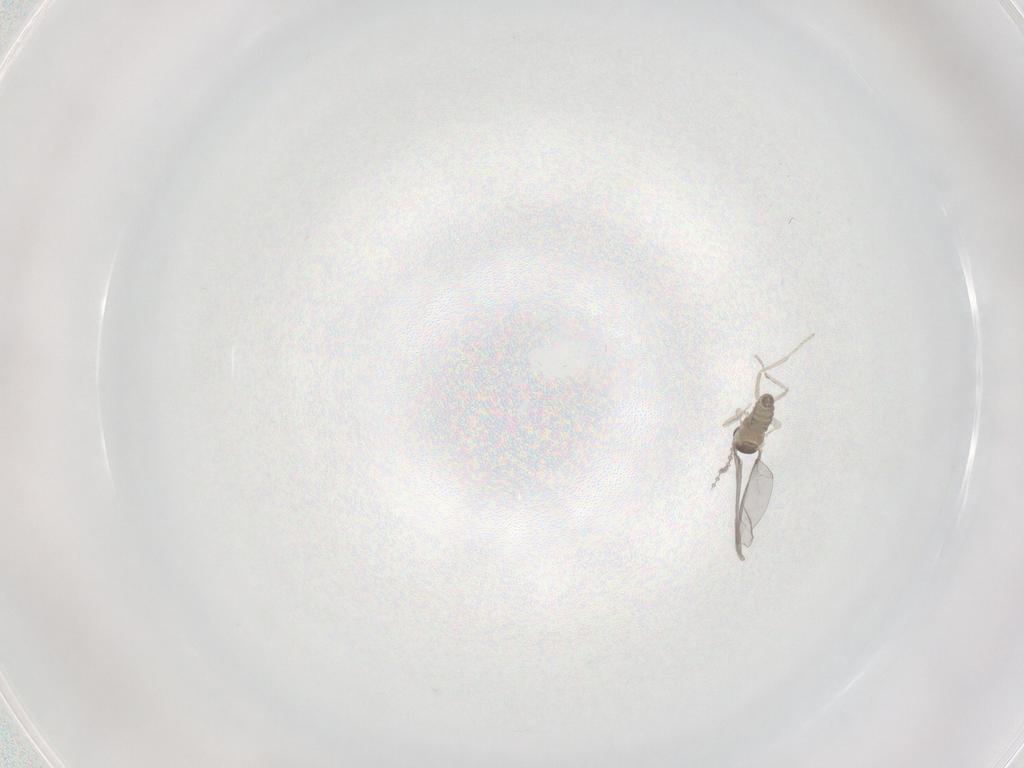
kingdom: Animalia
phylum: Arthropoda
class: Insecta
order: Diptera
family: Cecidomyiidae
